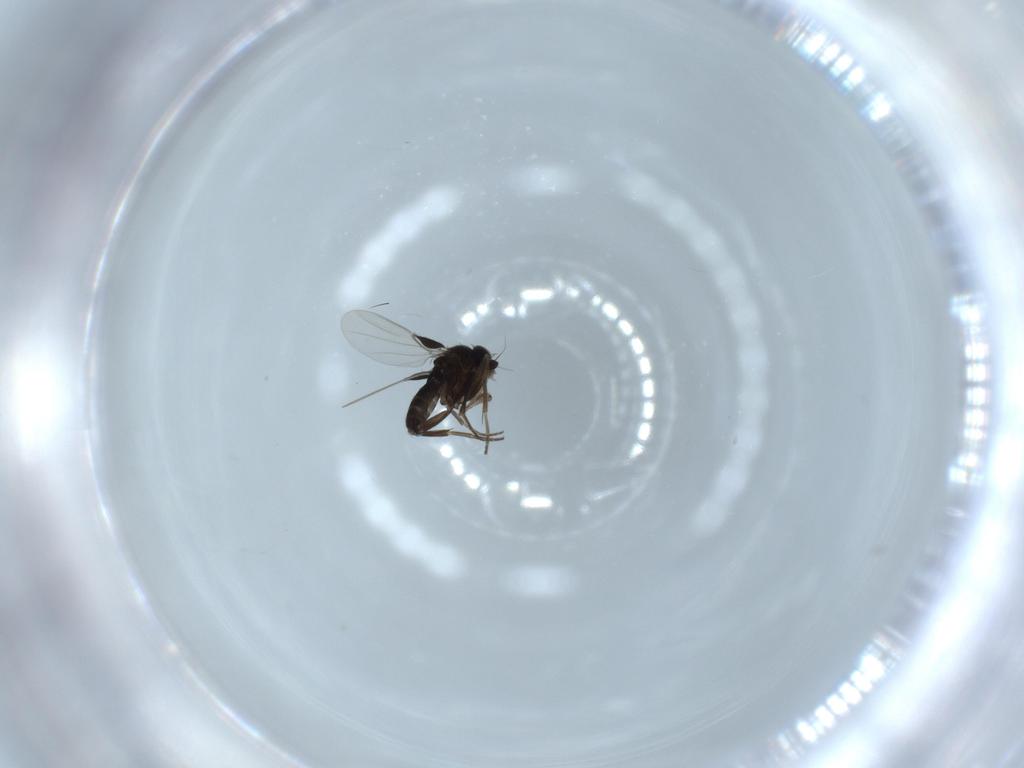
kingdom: Animalia
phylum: Arthropoda
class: Insecta
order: Diptera
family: Phoridae
